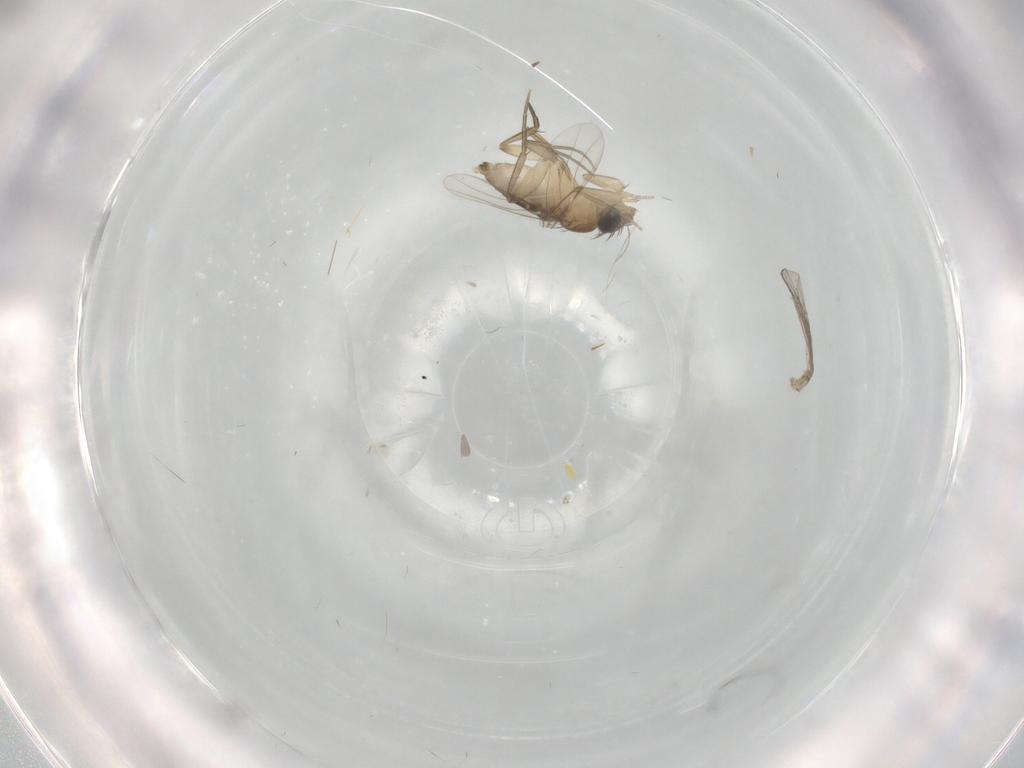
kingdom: Animalia
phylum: Arthropoda
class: Insecta
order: Diptera
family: Phoridae
